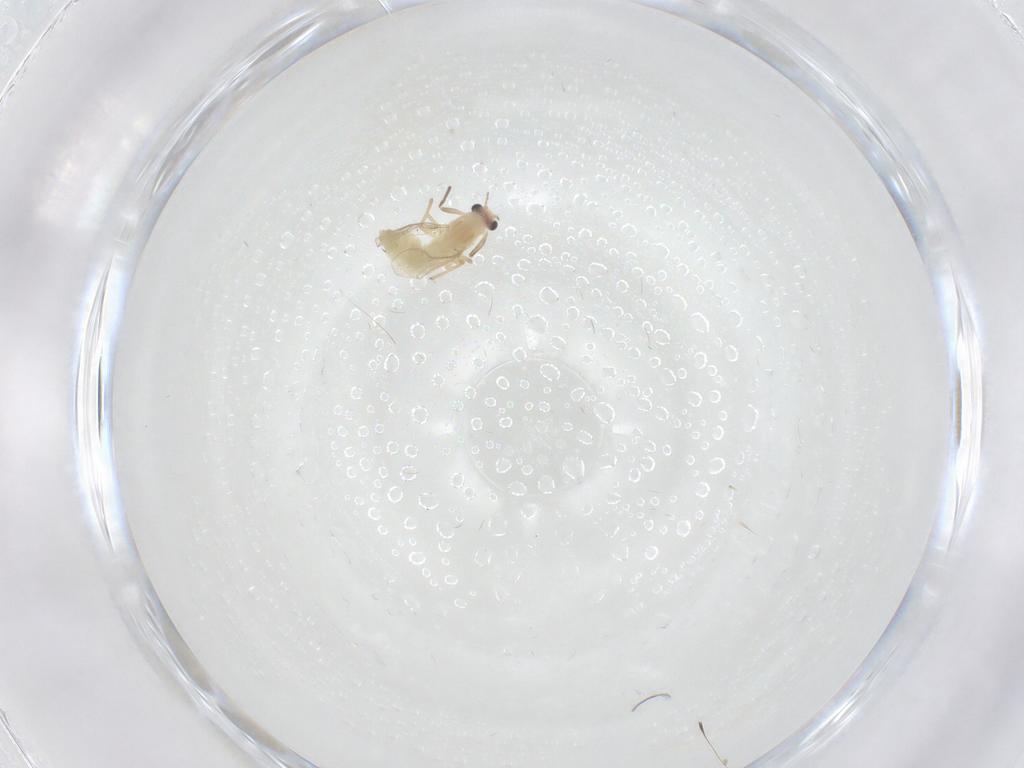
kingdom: Animalia
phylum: Arthropoda
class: Insecta
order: Diptera
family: Chironomidae
